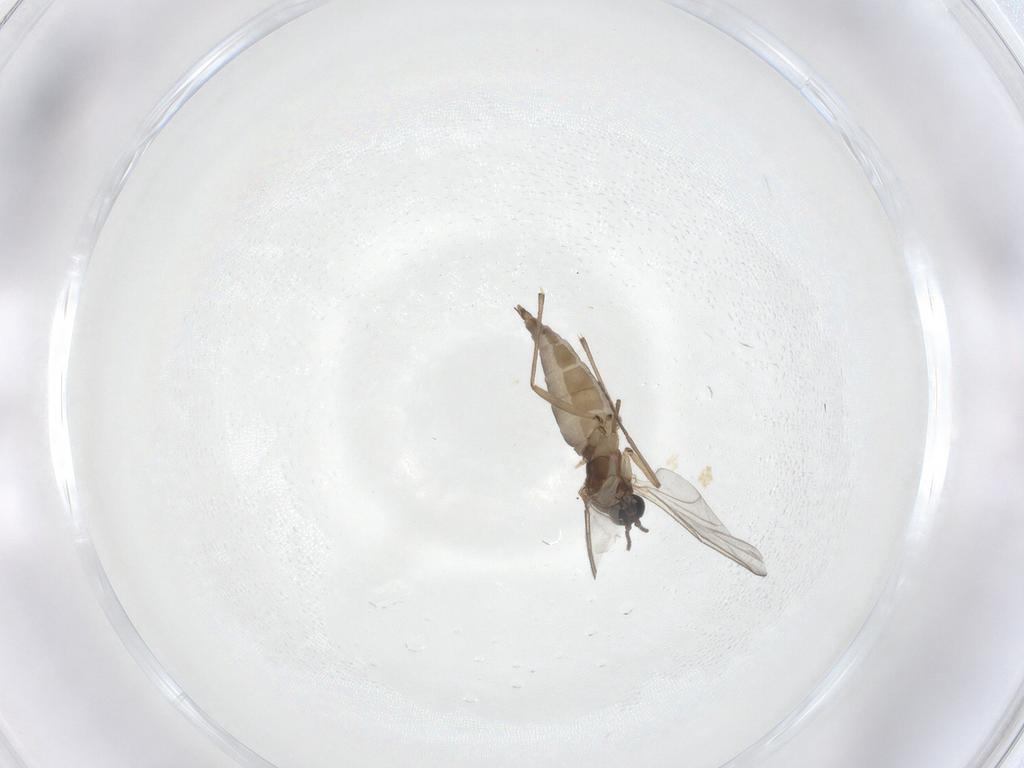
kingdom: Animalia
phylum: Arthropoda
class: Insecta
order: Diptera
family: Sciaridae
